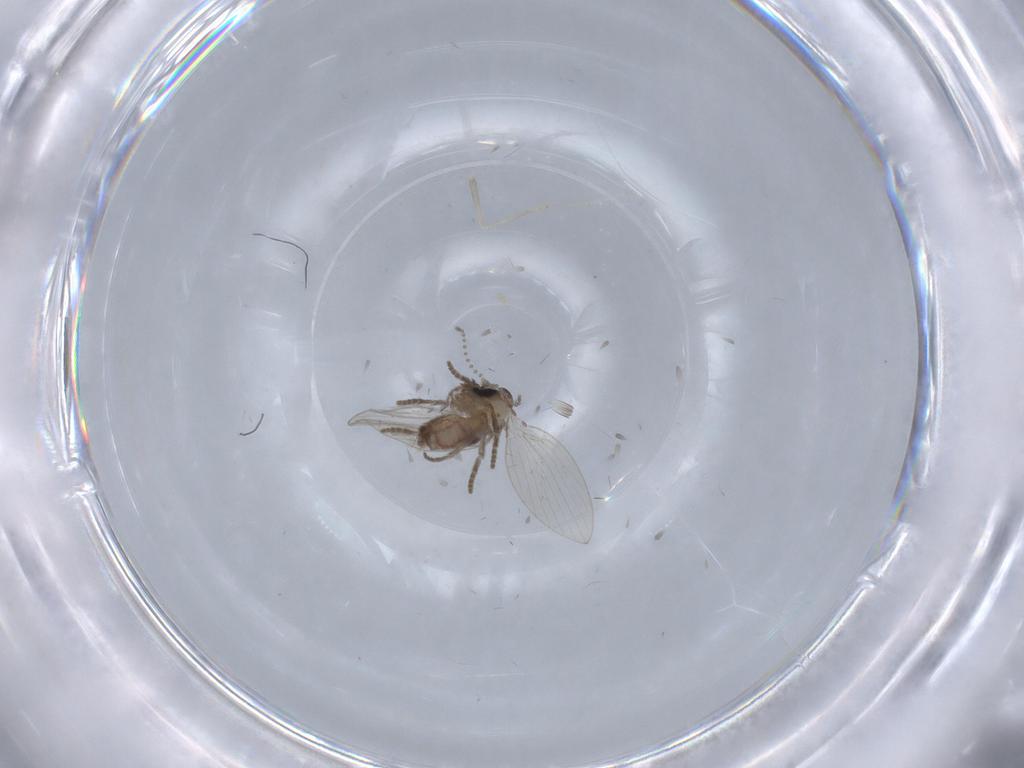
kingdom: Animalia
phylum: Arthropoda
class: Insecta
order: Diptera
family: Psychodidae
